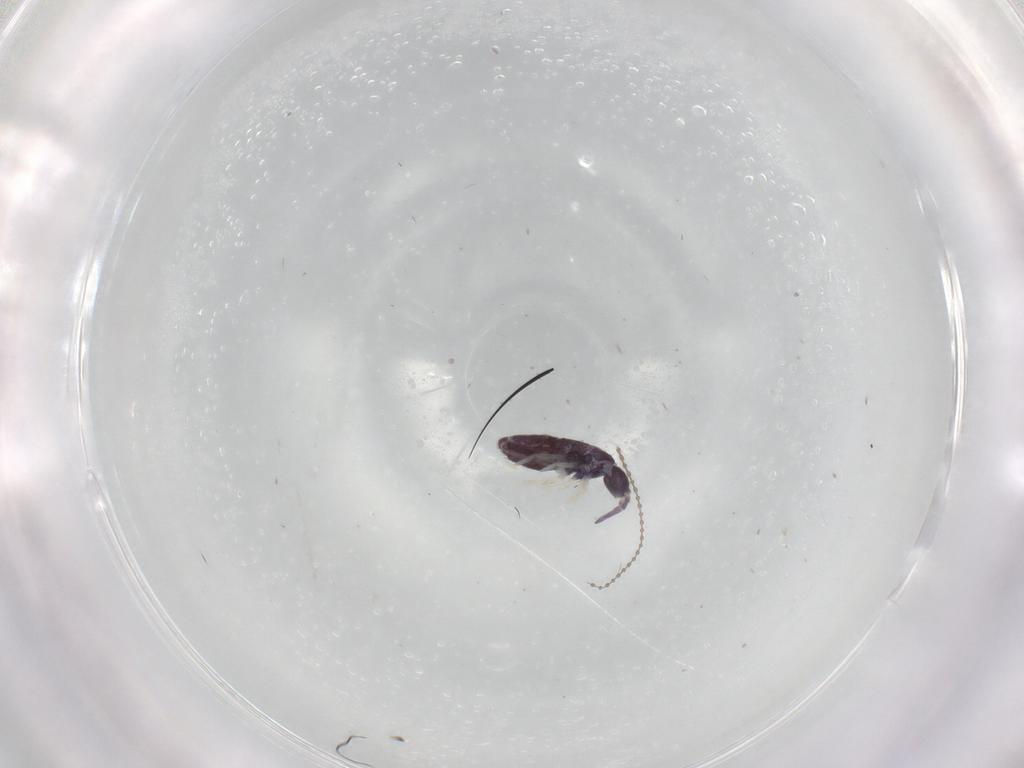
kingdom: Animalia
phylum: Arthropoda
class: Collembola
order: Entomobryomorpha
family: Entomobryidae
